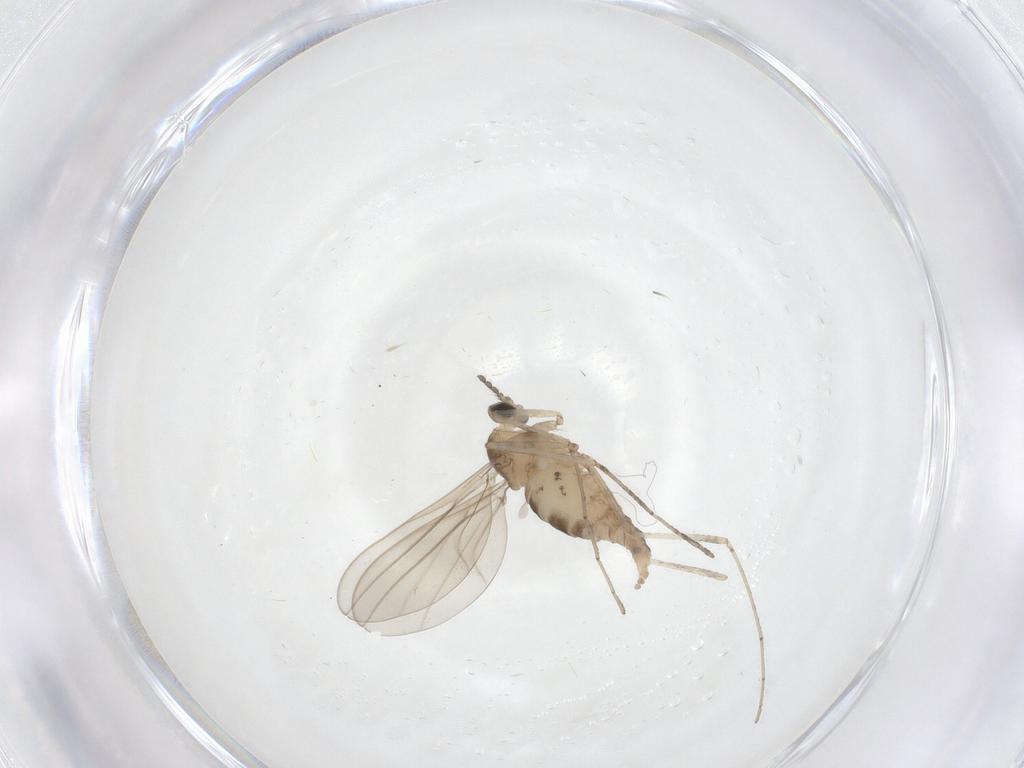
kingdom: Animalia
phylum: Arthropoda
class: Insecta
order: Diptera
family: Cecidomyiidae
